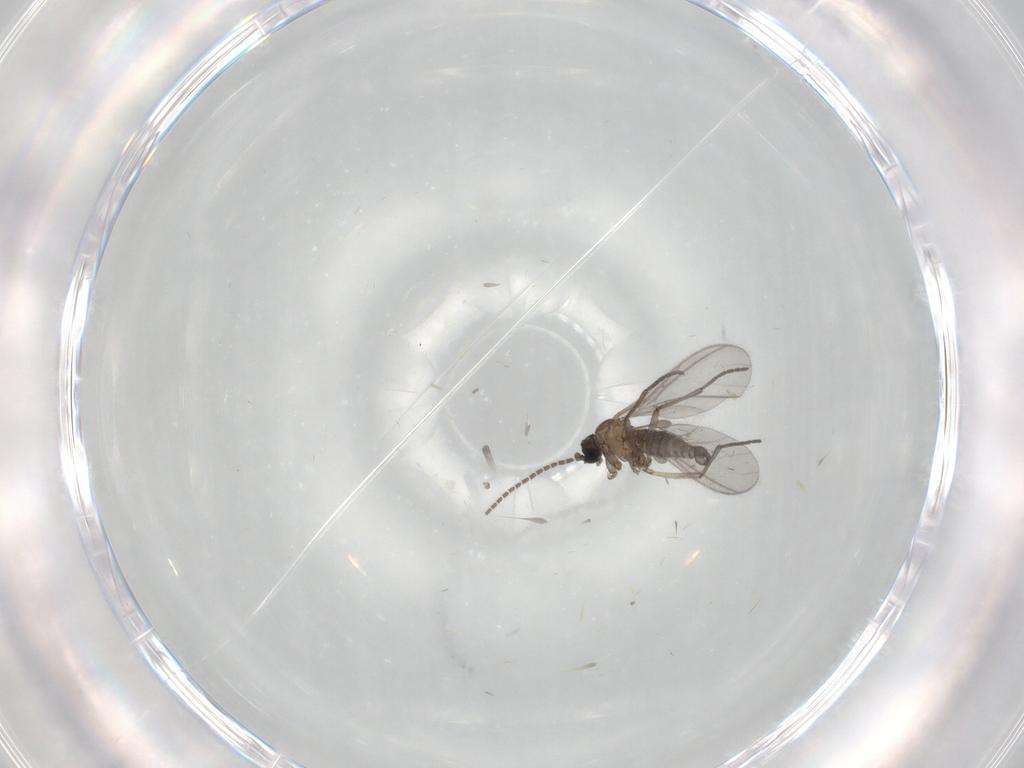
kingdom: Animalia
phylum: Arthropoda
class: Insecta
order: Diptera
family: Sciaridae
